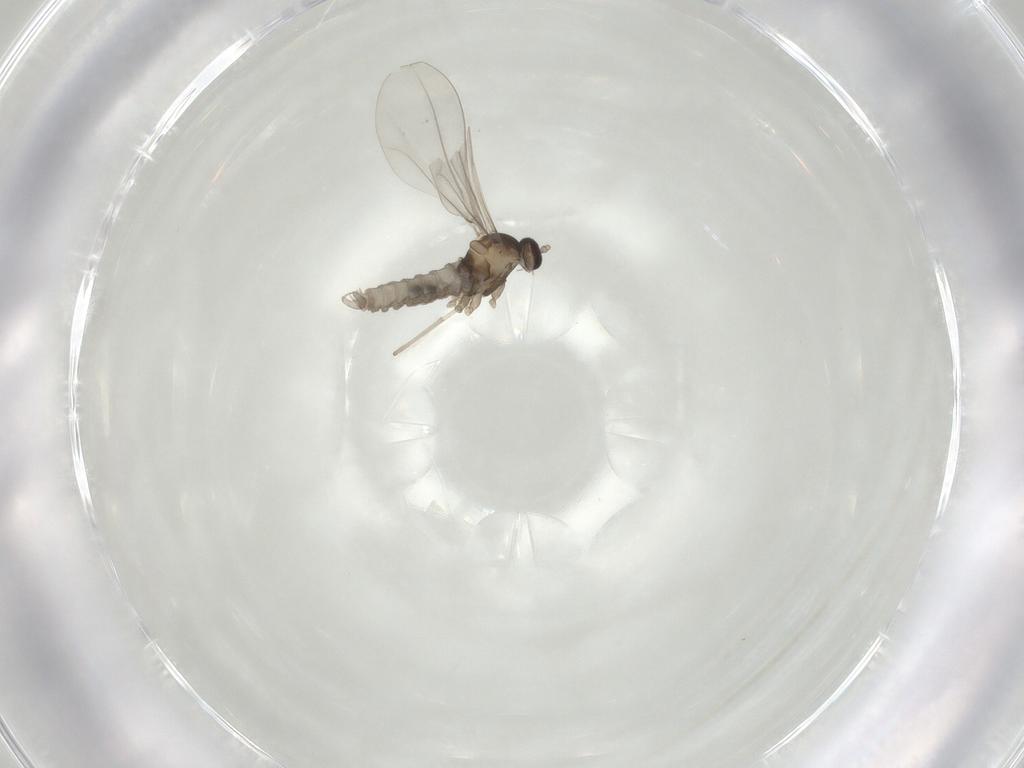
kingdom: Animalia
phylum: Arthropoda
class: Insecta
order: Diptera
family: Cecidomyiidae
